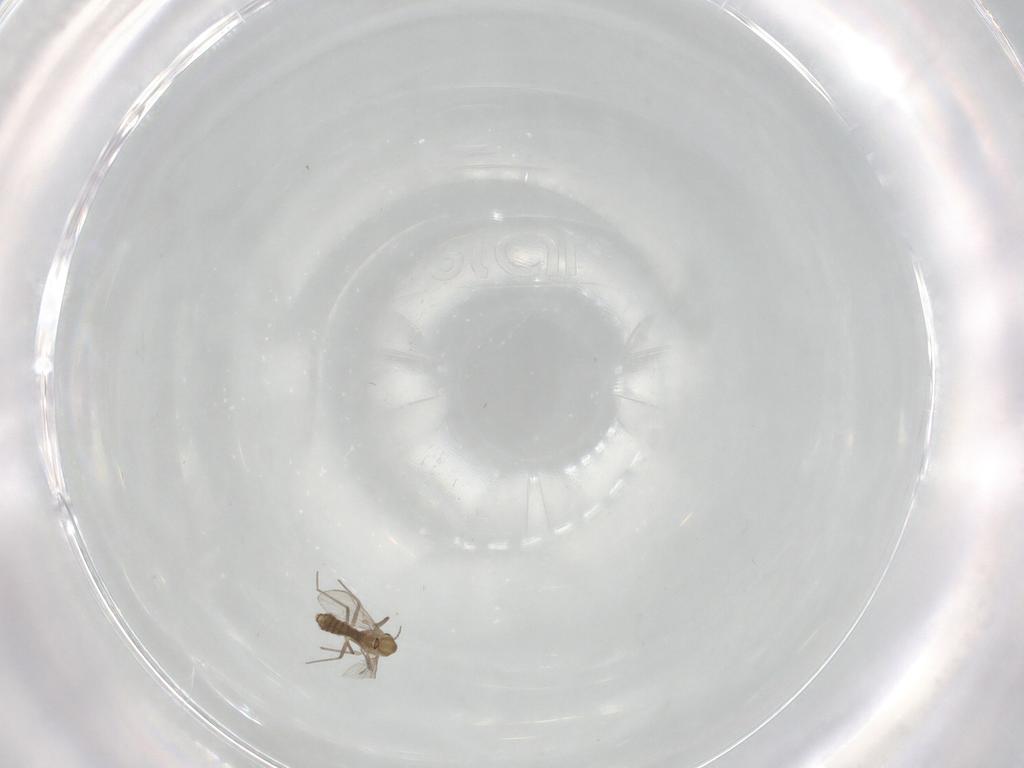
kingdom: Animalia
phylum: Arthropoda
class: Insecta
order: Diptera
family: Phoridae
